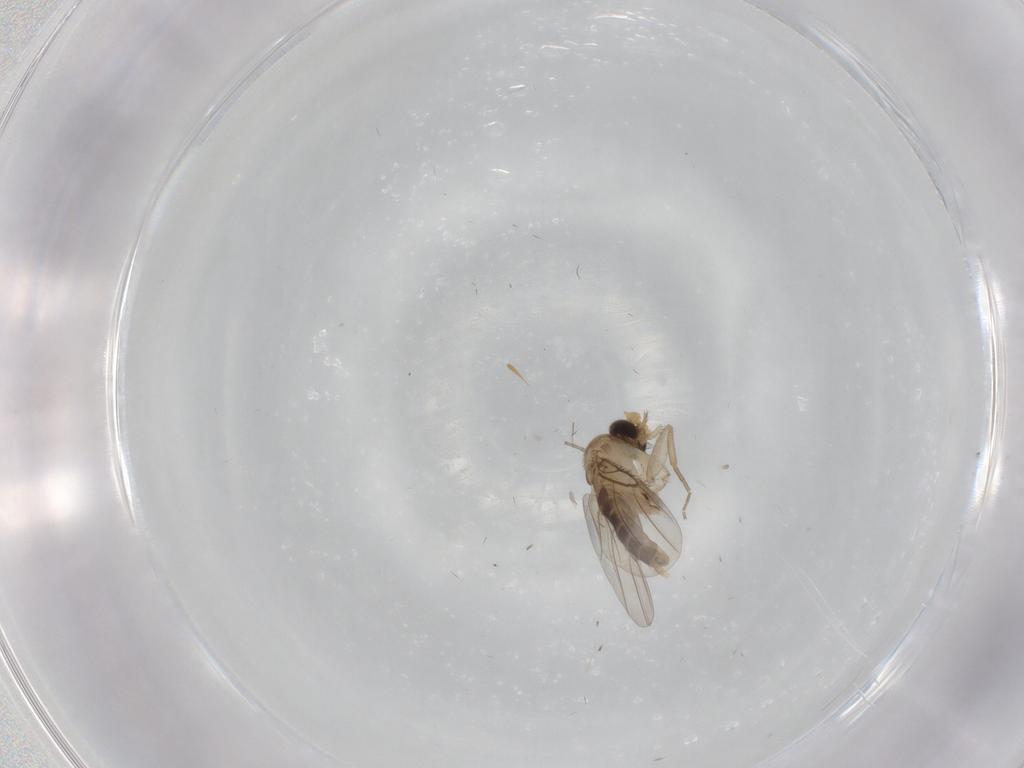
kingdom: Animalia
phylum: Arthropoda
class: Insecta
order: Diptera
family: Phoridae
